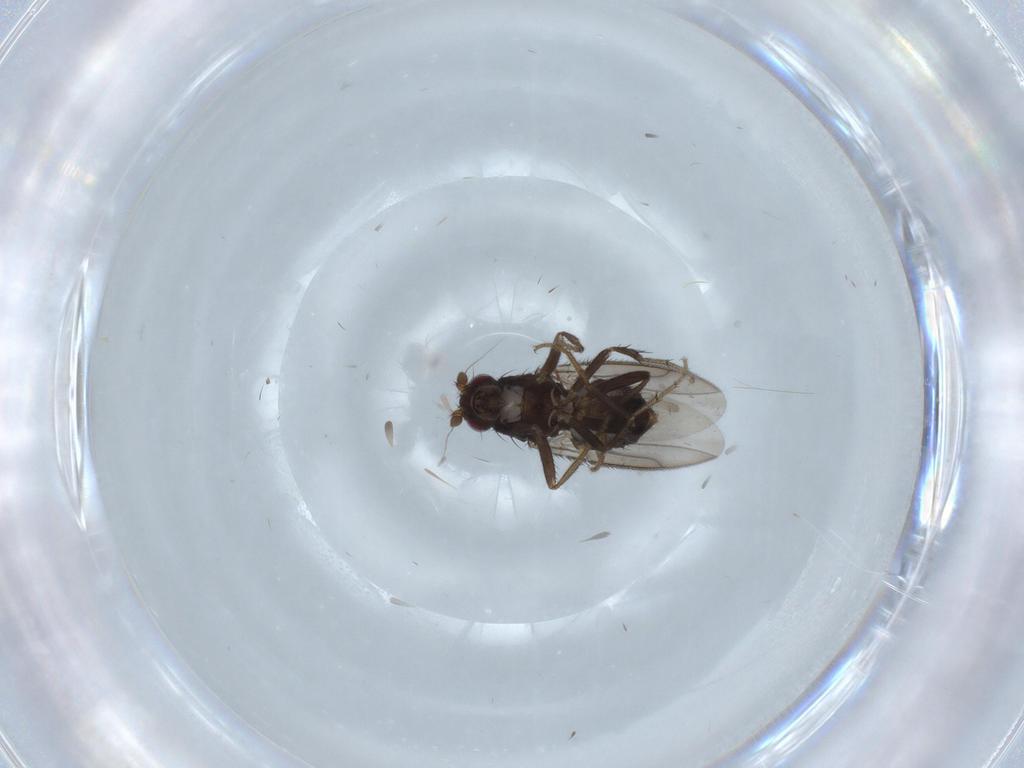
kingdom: Animalia
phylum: Arthropoda
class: Insecta
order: Diptera
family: Sphaeroceridae
